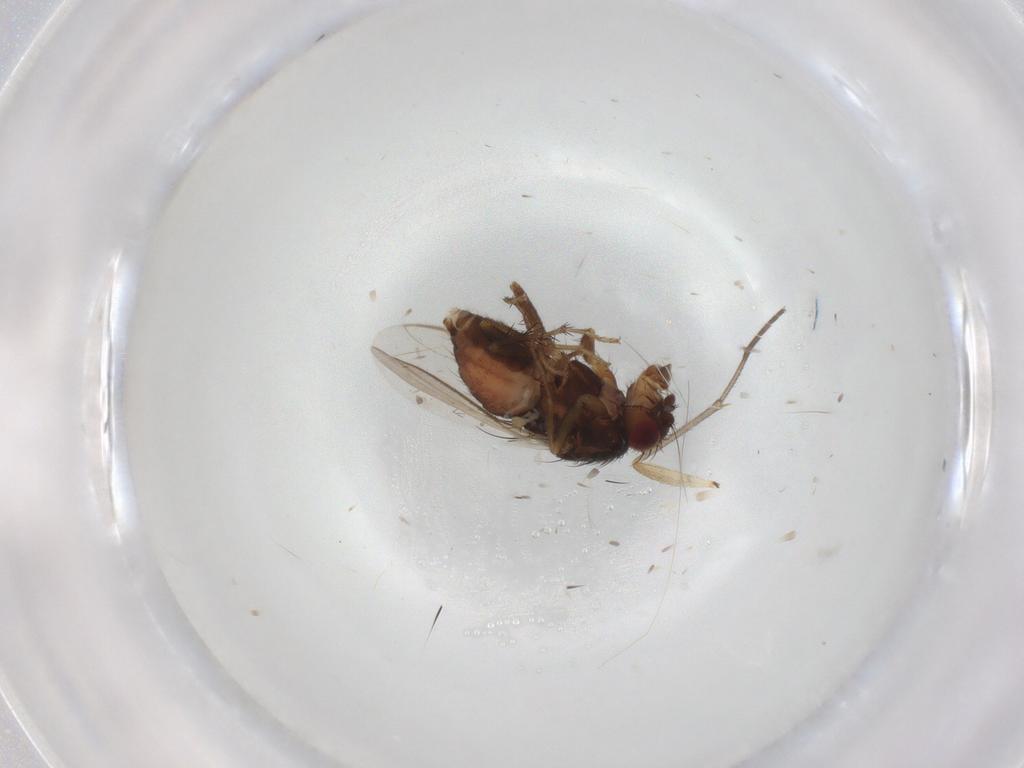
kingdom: Animalia
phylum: Arthropoda
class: Insecta
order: Diptera
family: Sphaeroceridae
